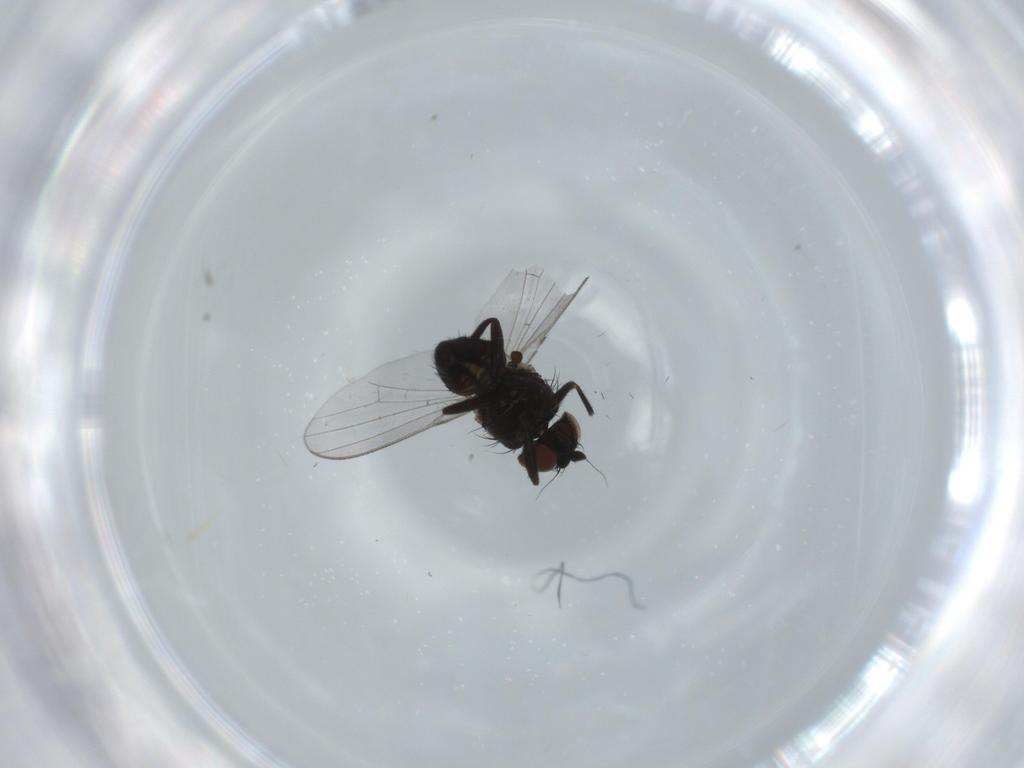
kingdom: Animalia
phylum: Arthropoda
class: Insecta
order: Diptera
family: Milichiidae
